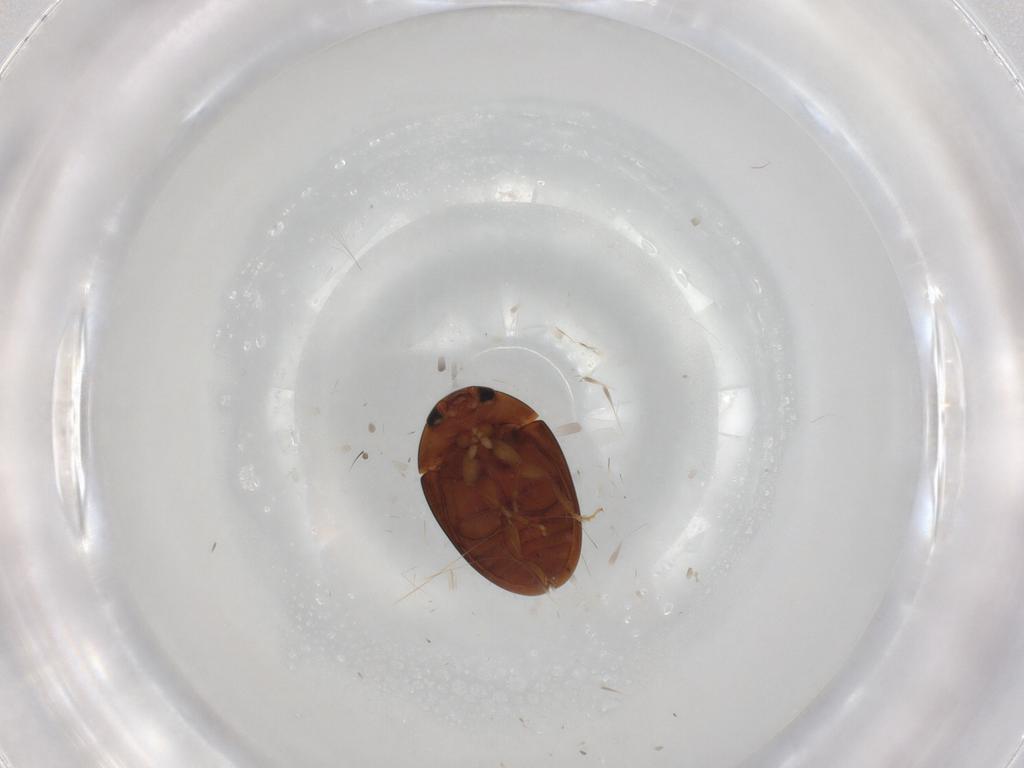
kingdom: Animalia
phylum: Arthropoda
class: Insecta
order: Coleoptera
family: Phalacridae
